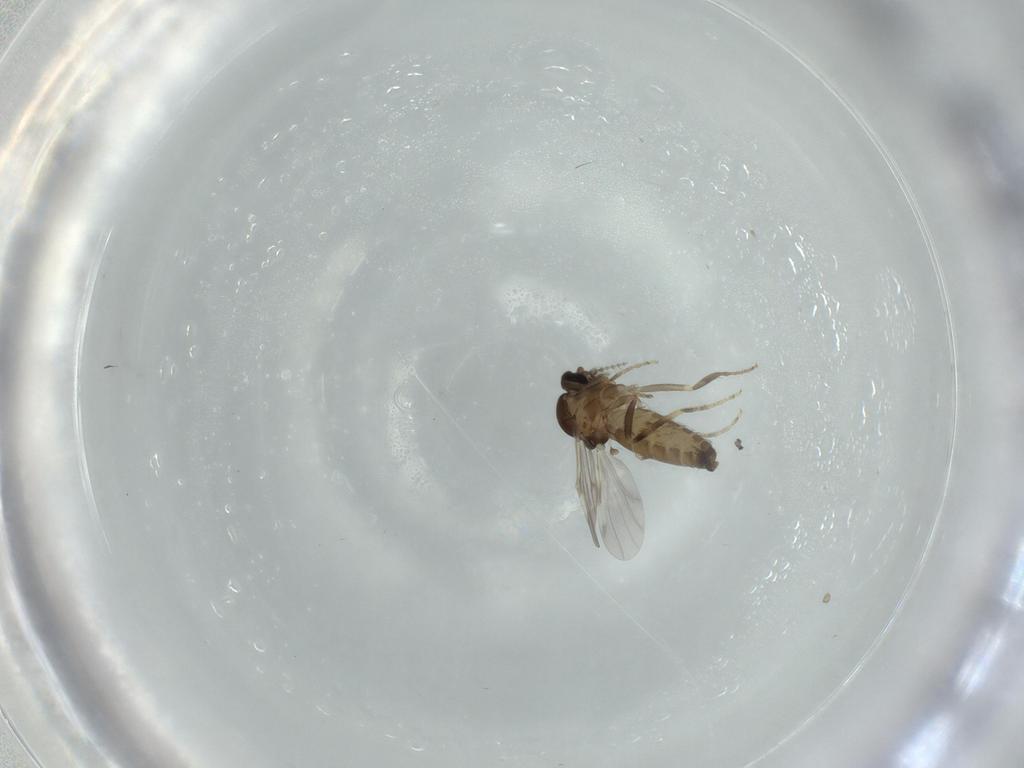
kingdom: Animalia
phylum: Arthropoda
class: Insecta
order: Diptera
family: Ceratopogonidae
